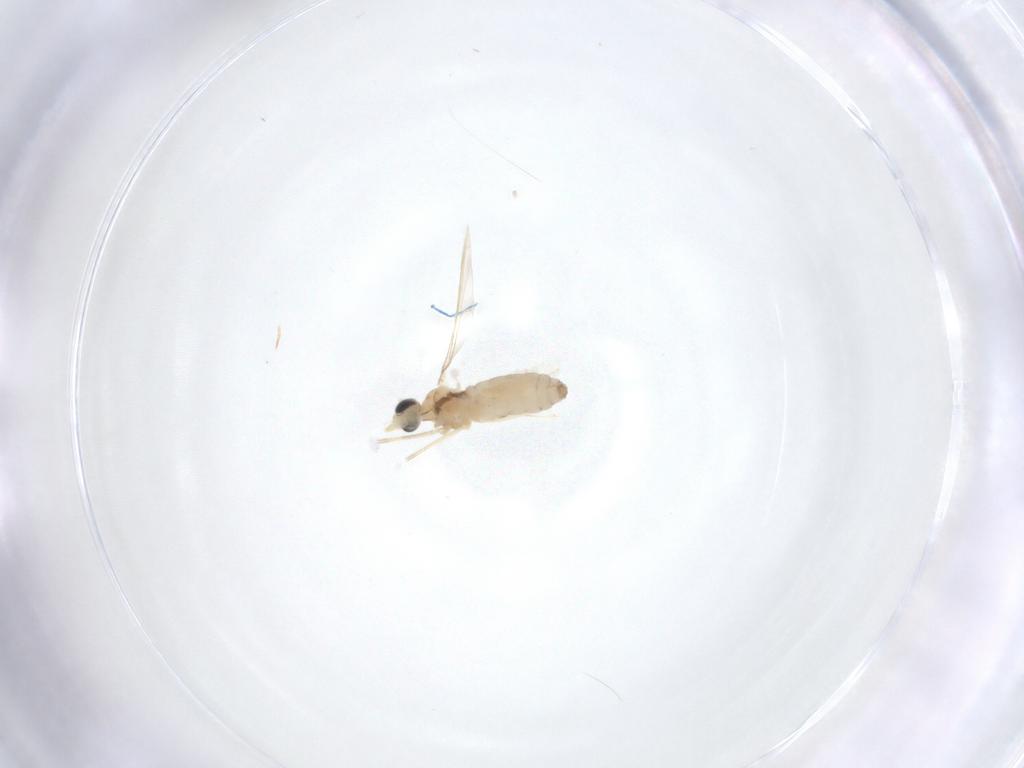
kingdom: Animalia
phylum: Arthropoda
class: Insecta
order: Diptera
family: Cecidomyiidae
